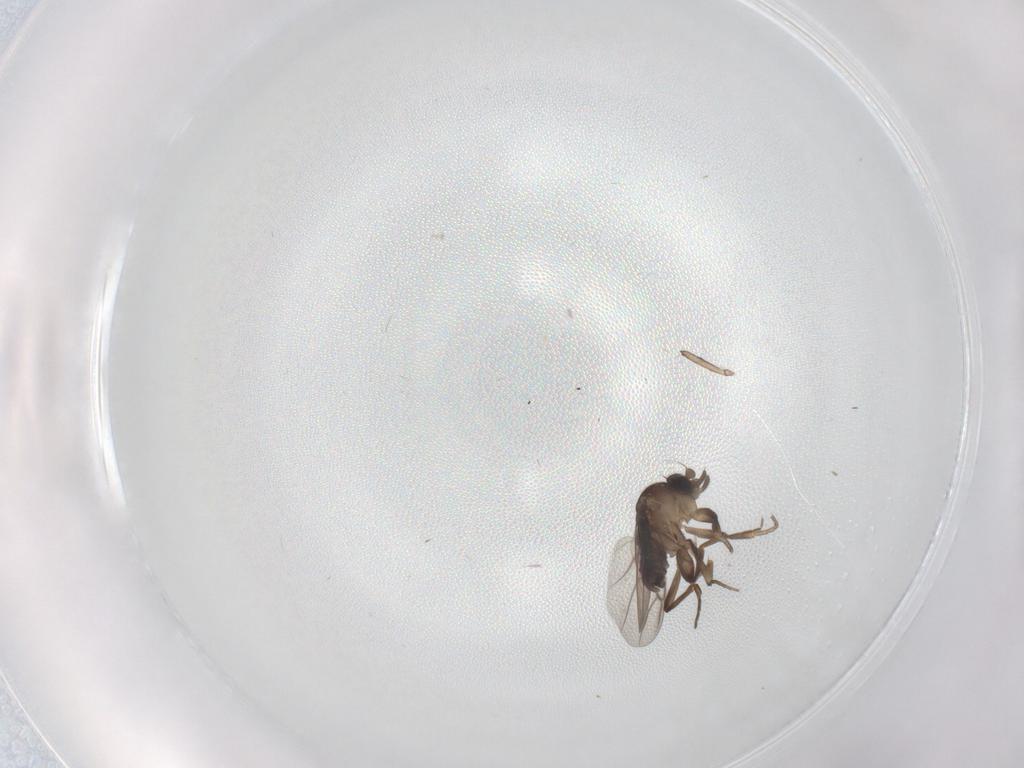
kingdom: Animalia
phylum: Arthropoda
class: Insecta
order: Diptera
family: Phoridae
